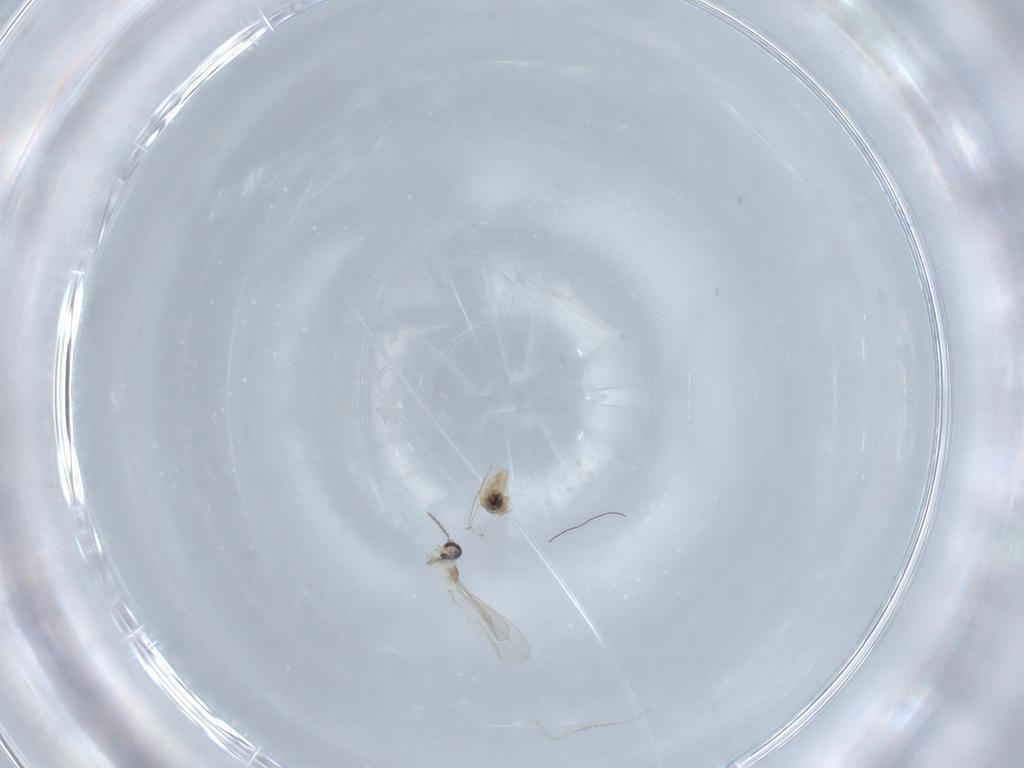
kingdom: Animalia
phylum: Arthropoda
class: Insecta
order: Diptera
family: Cecidomyiidae
